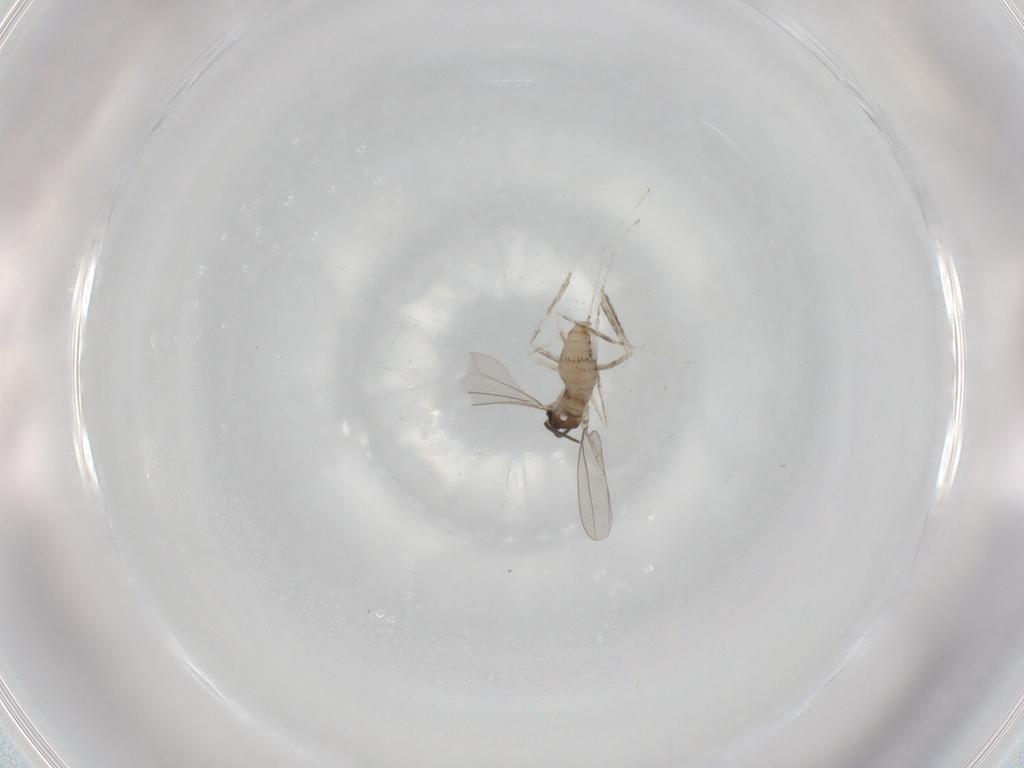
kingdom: Animalia
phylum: Arthropoda
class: Insecta
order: Diptera
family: Cecidomyiidae
